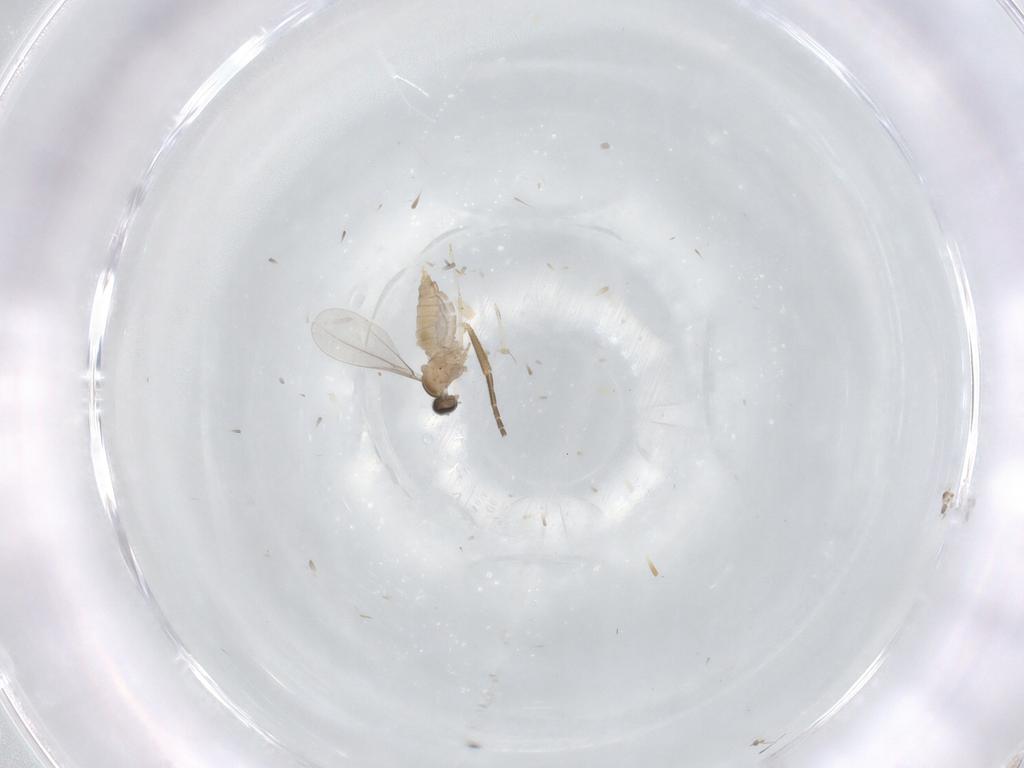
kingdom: Animalia
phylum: Arthropoda
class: Insecta
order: Diptera
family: Cecidomyiidae
